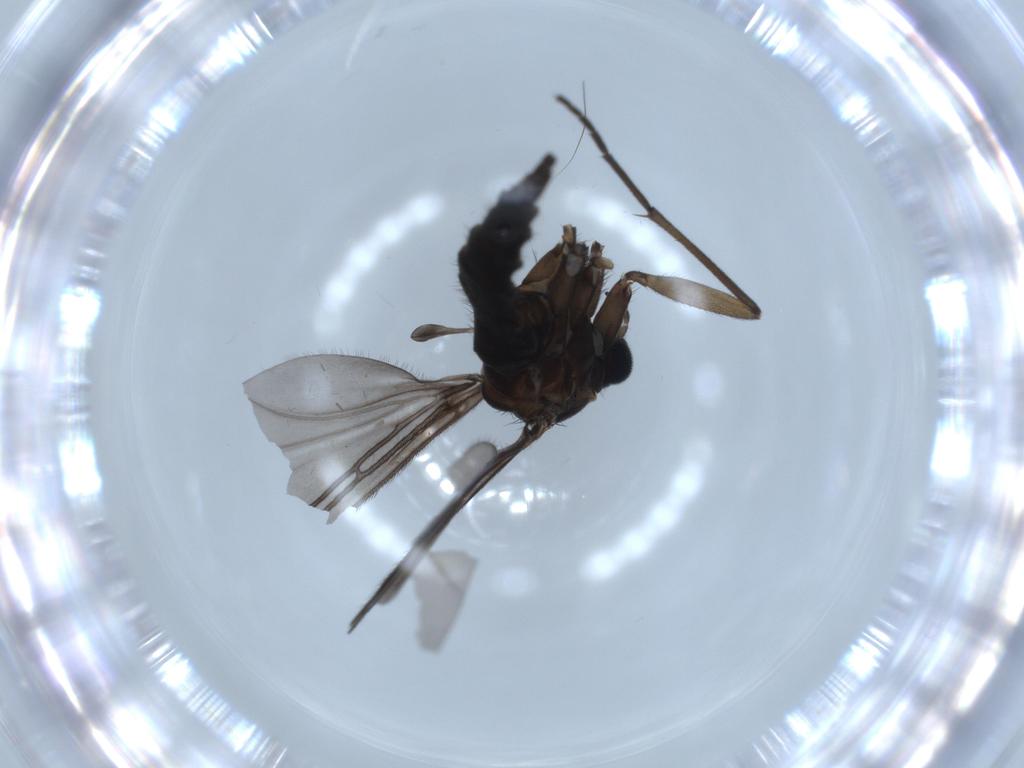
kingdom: Animalia
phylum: Arthropoda
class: Insecta
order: Diptera
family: Sciaridae
